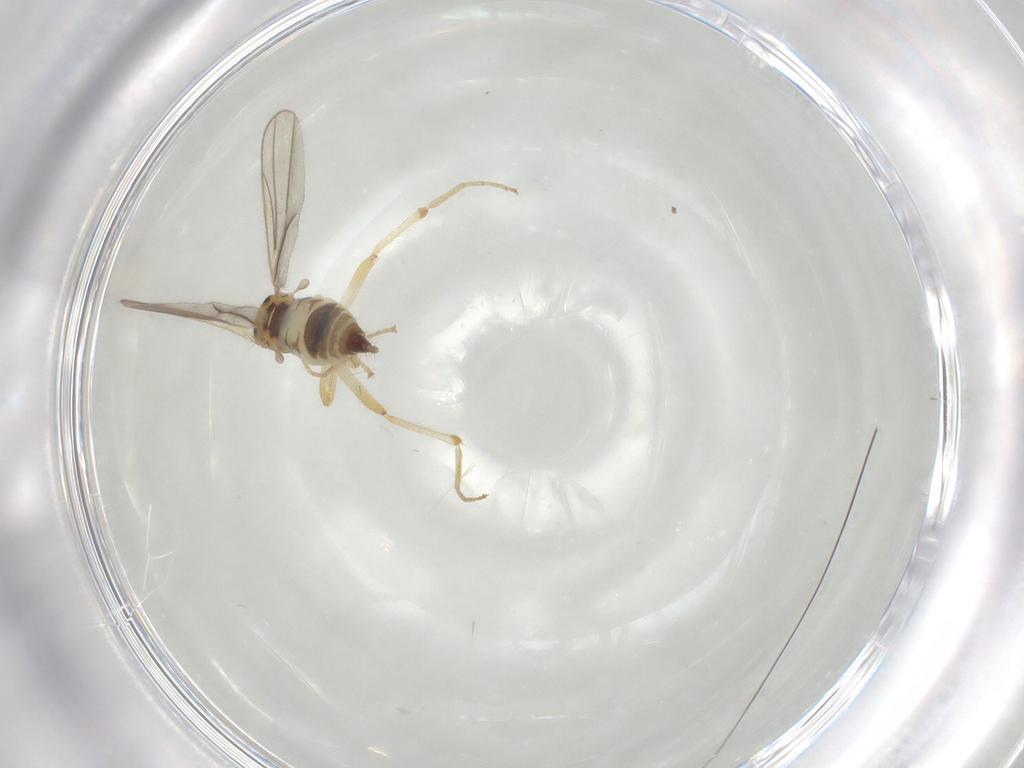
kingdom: Animalia
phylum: Arthropoda
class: Insecta
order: Diptera
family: Hybotidae
